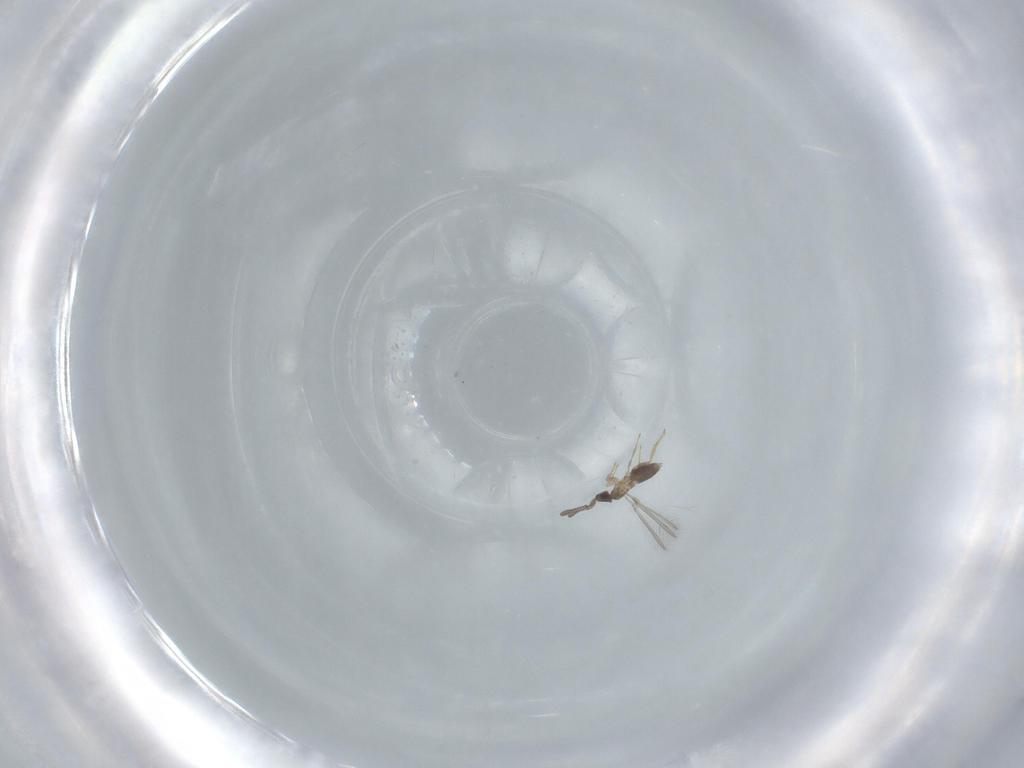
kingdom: Animalia
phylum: Arthropoda
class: Insecta
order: Hymenoptera
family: Mymaridae
